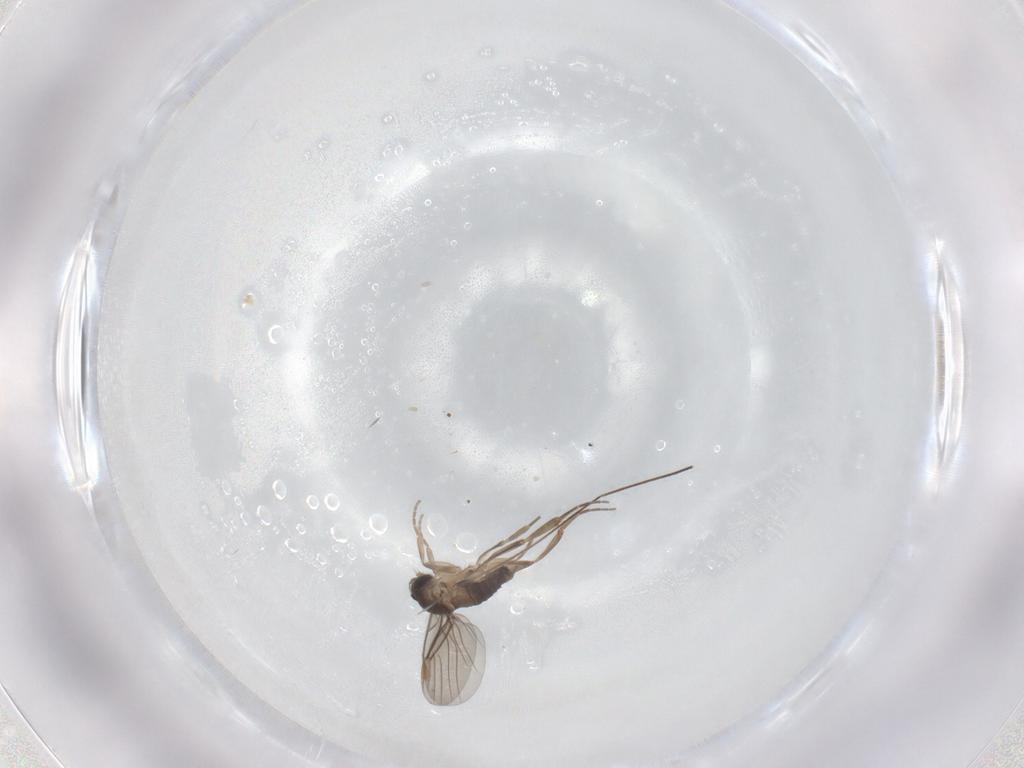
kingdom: Animalia
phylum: Arthropoda
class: Insecta
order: Diptera
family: Phoridae
